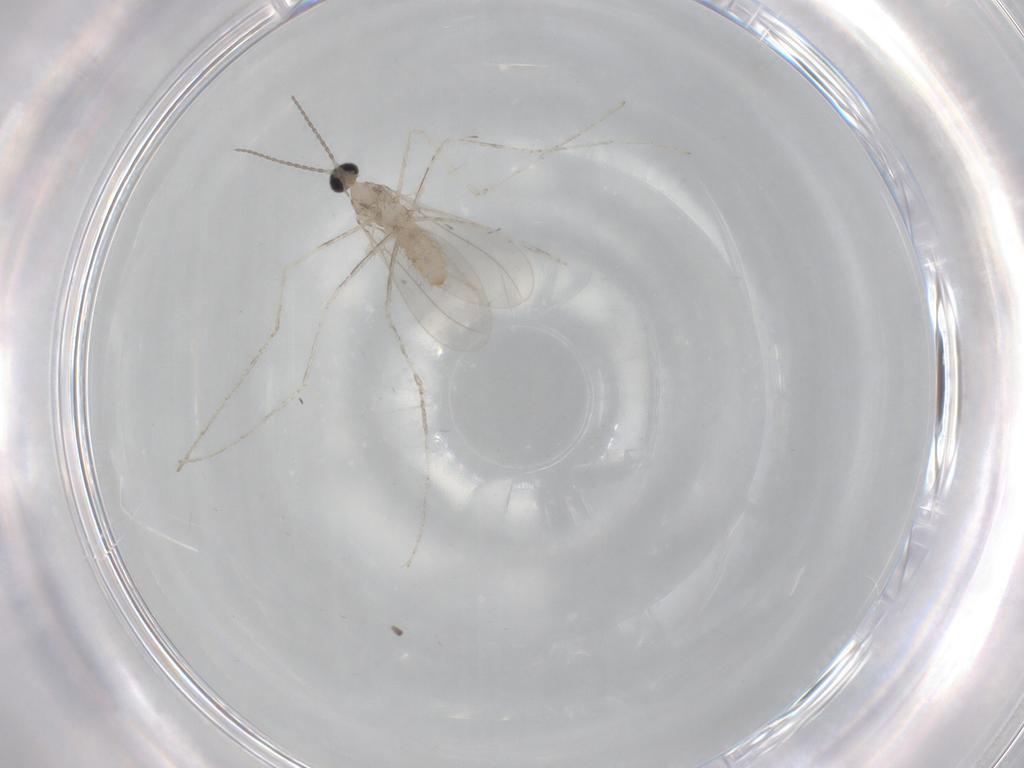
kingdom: Animalia
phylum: Arthropoda
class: Insecta
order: Diptera
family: Cecidomyiidae
